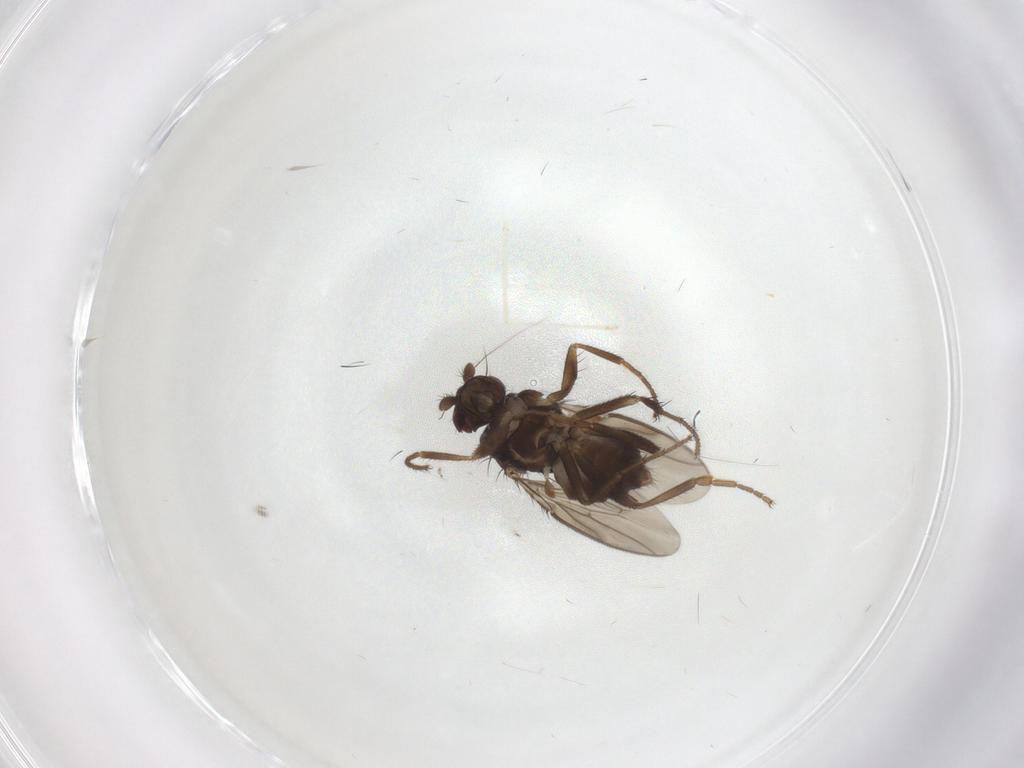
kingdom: Animalia
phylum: Arthropoda
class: Insecta
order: Diptera
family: Sphaeroceridae
